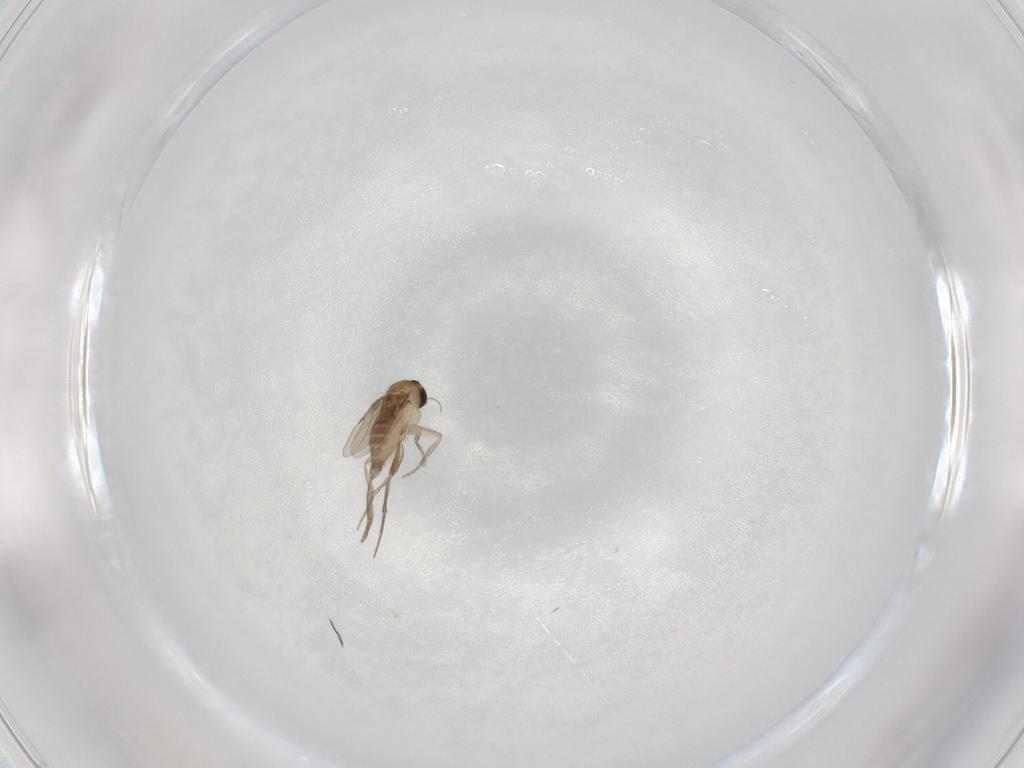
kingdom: Animalia
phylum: Arthropoda
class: Insecta
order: Diptera
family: Phoridae
